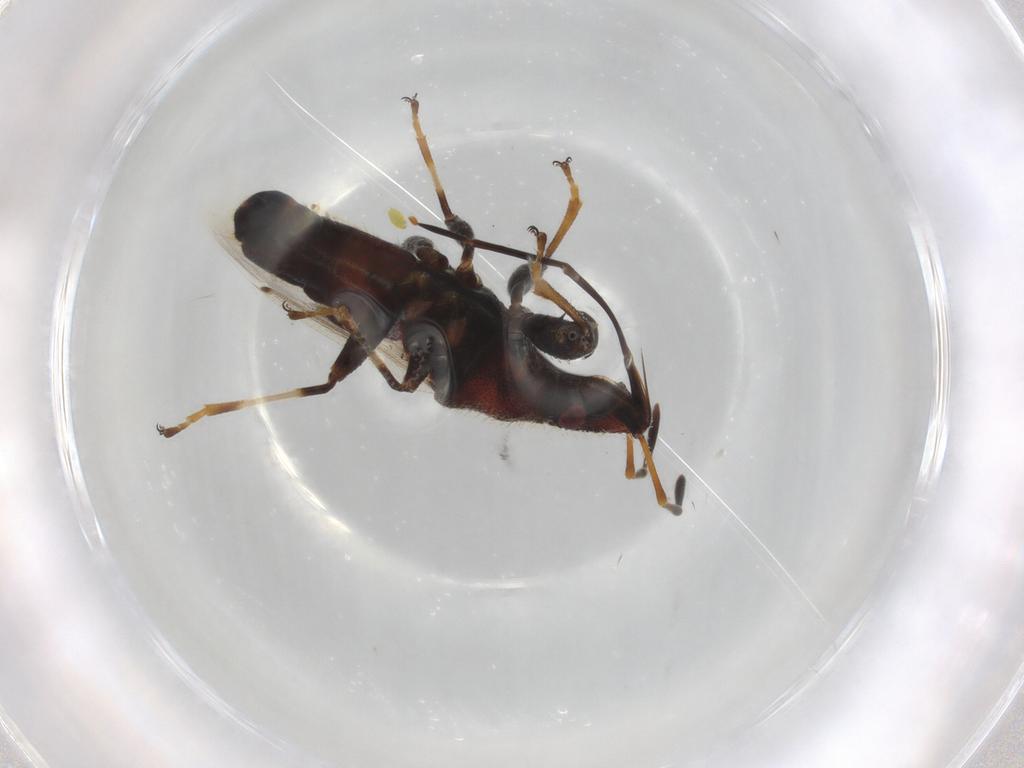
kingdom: Animalia
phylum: Arthropoda
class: Insecta
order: Hemiptera
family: Oxycarenidae
